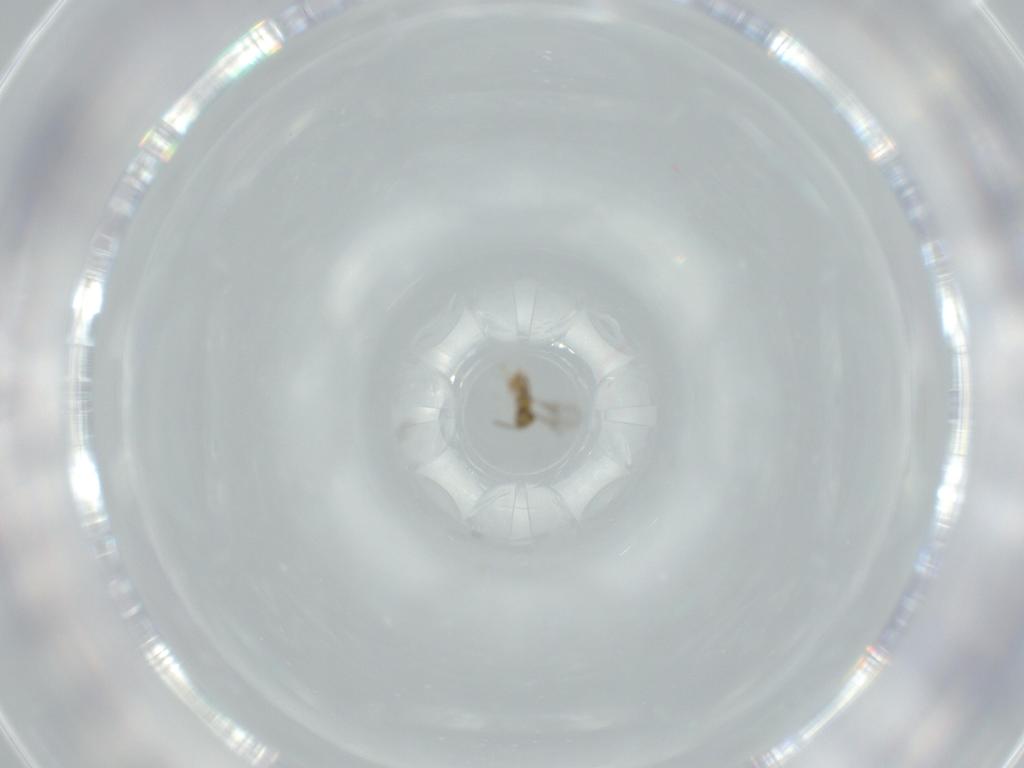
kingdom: Animalia
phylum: Arthropoda
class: Insecta
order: Hymenoptera
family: Aphelinidae
